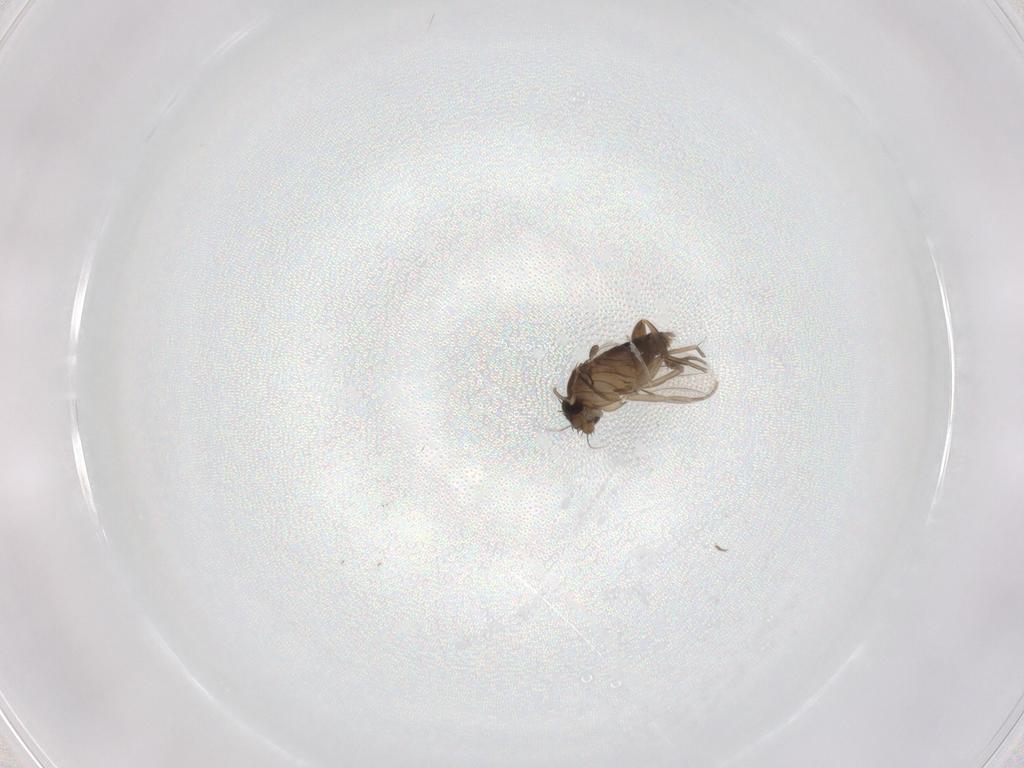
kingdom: Animalia
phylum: Arthropoda
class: Insecta
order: Diptera
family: Phoridae
